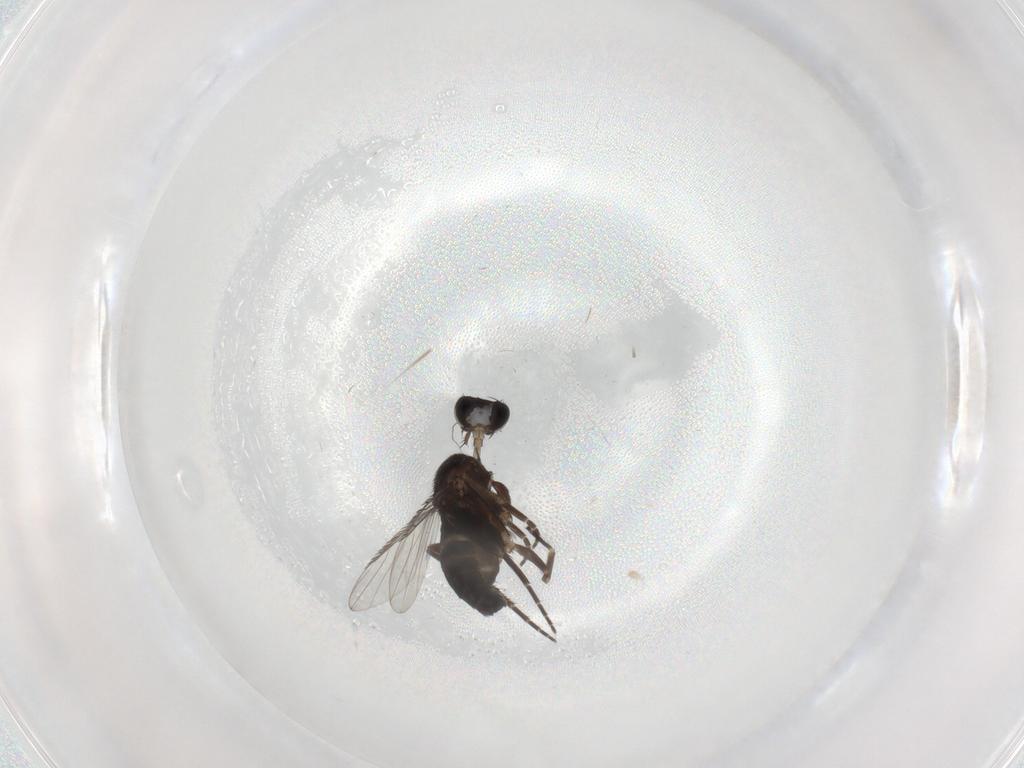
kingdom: Animalia
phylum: Arthropoda
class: Insecta
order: Diptera
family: Phoridae
